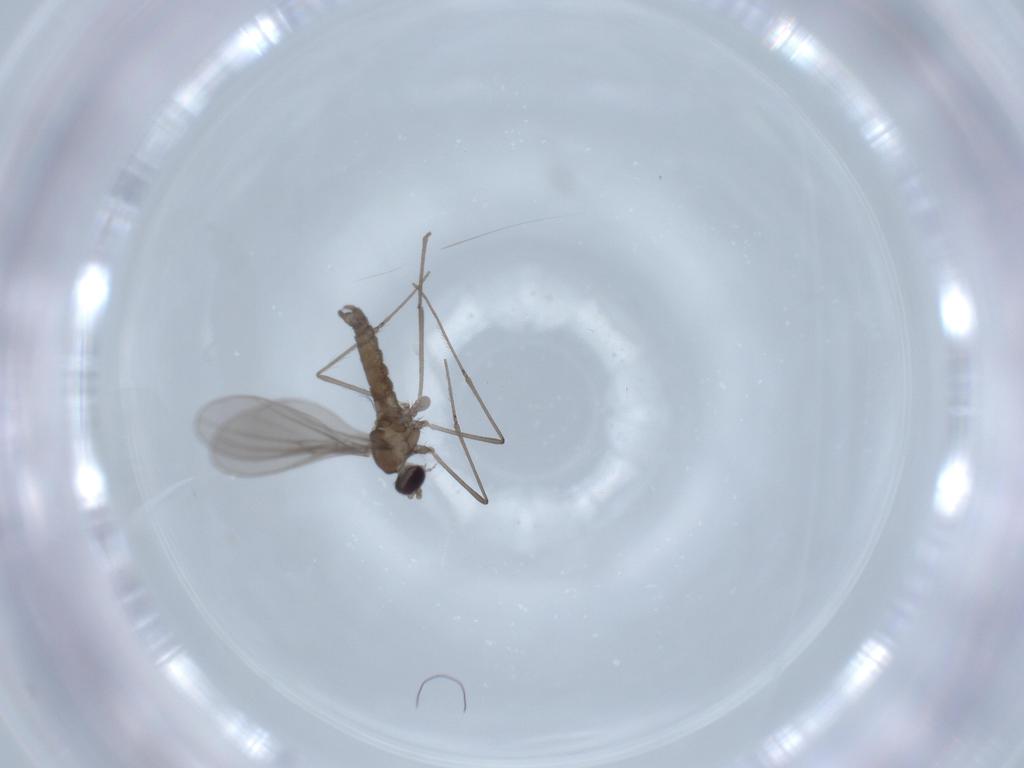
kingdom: Animalia
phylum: Arthropoda
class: Insecta
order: Diptera
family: Cecidomyiidae
